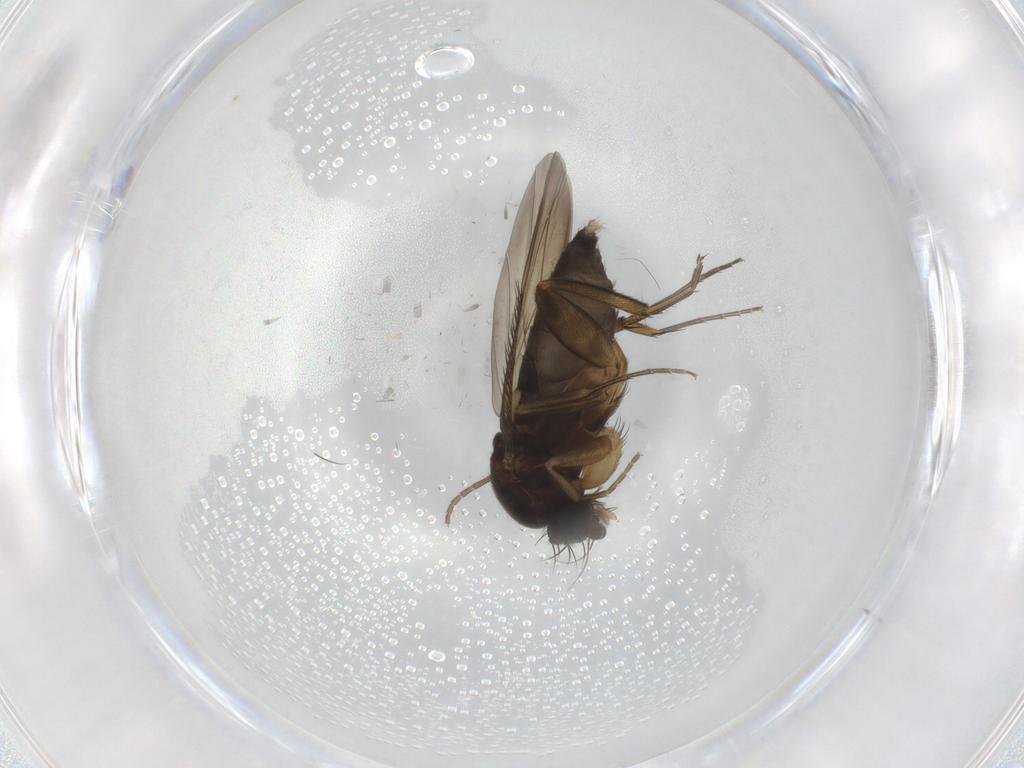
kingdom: Animalia
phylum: Arthropoda
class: Insecta
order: Diptera
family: Phoridae
